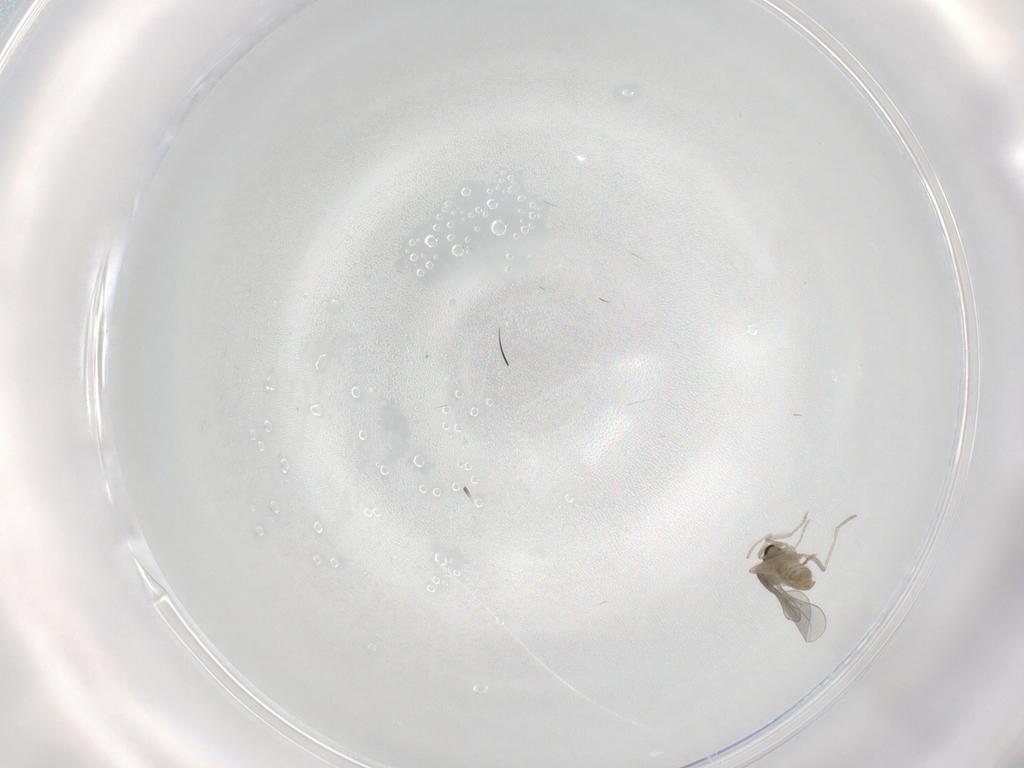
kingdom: Animalia
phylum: Arthropoda
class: Insecta
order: Diptera
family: Cecidomyiidae
